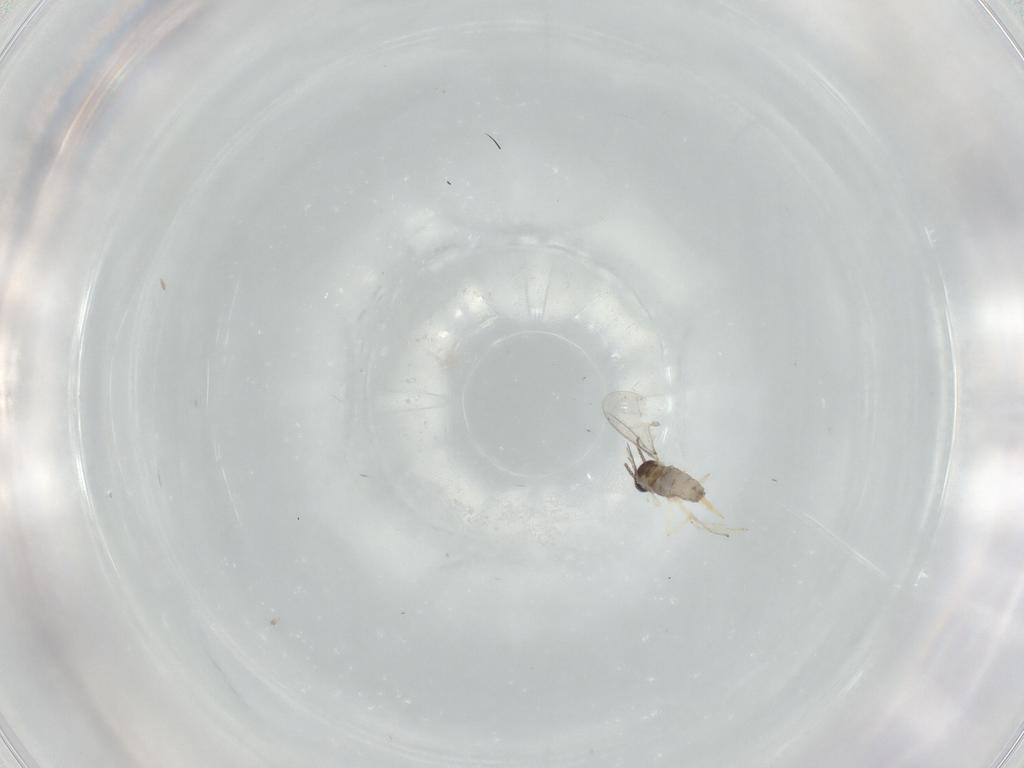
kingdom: Animalia
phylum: Arthropoda
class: Insecta
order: Diptera
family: Cecidomyiidae
